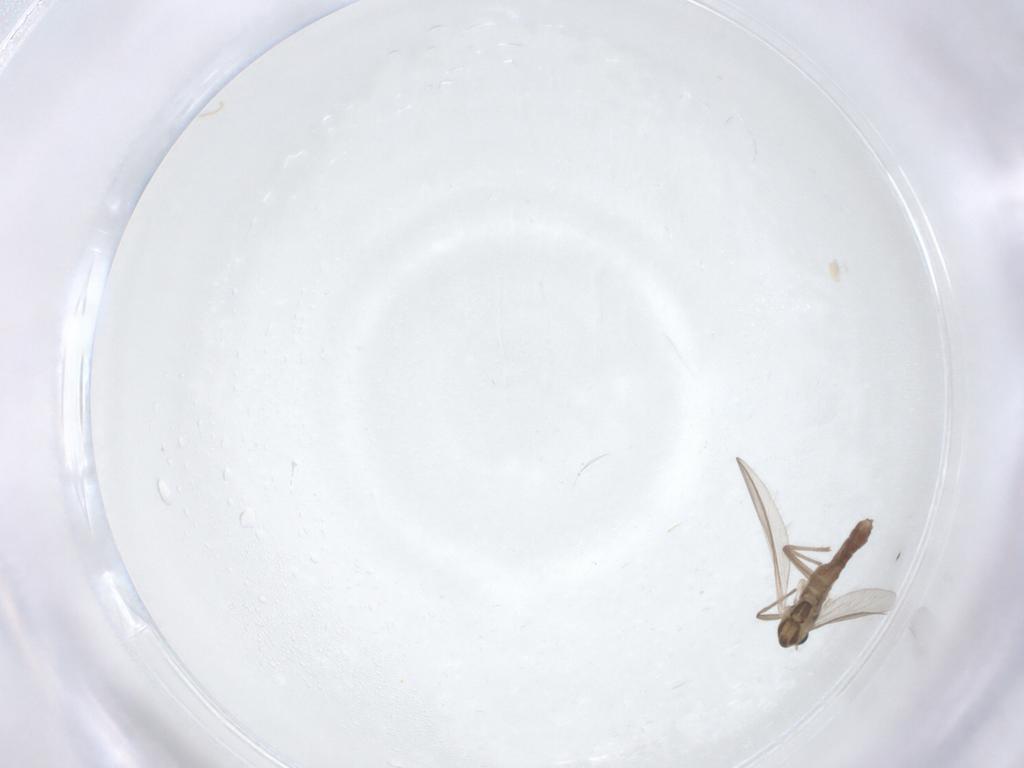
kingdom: Animalia
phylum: Arthropoda
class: Insecta
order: Diptera
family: Chironomidae
